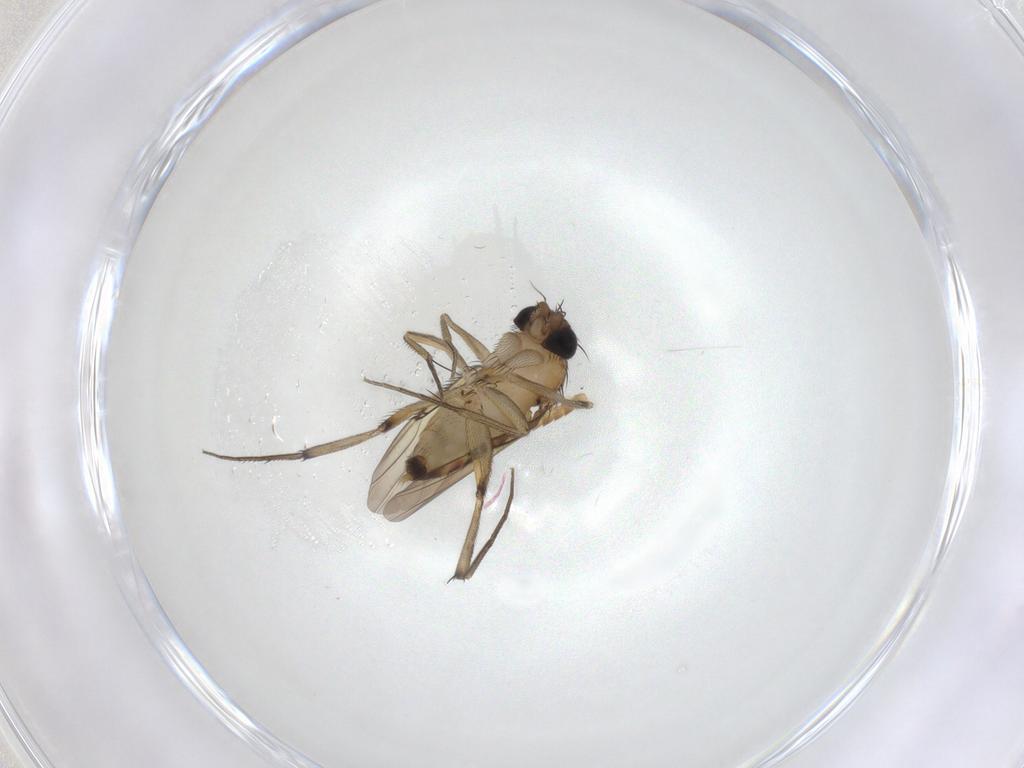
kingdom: Animalia
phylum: Arthropoda
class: Insecta
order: Diptera
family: Phoridae
